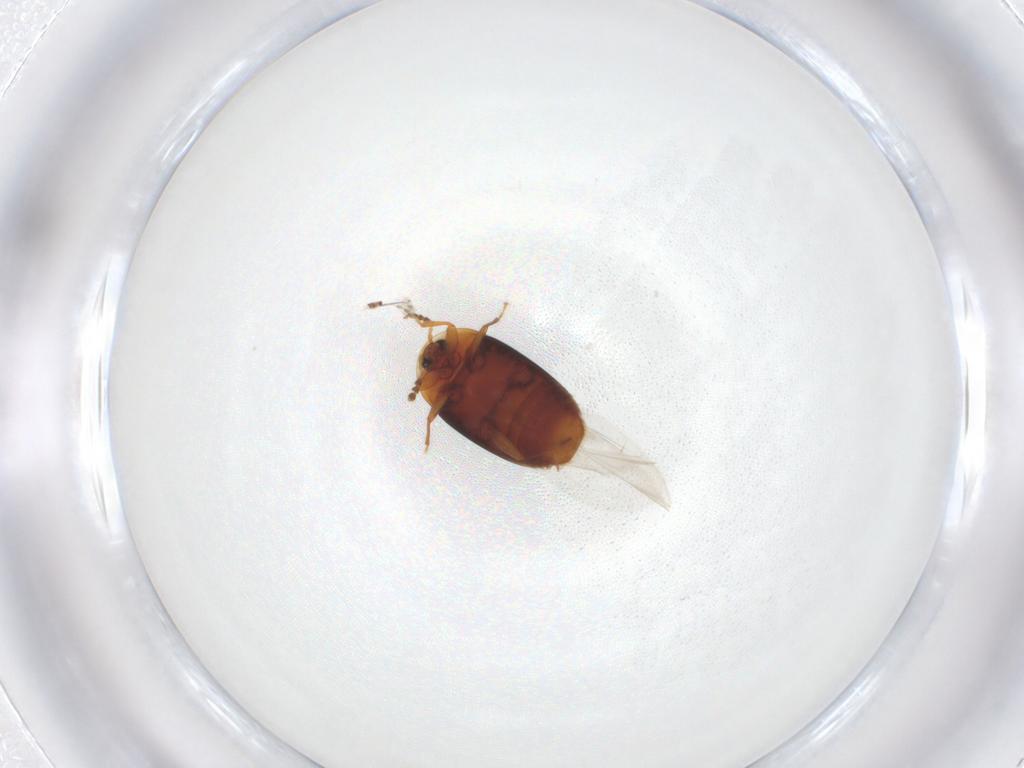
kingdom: Animalia
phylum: Arthropoda
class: Insecta
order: Coleoptera
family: Corylophidae
